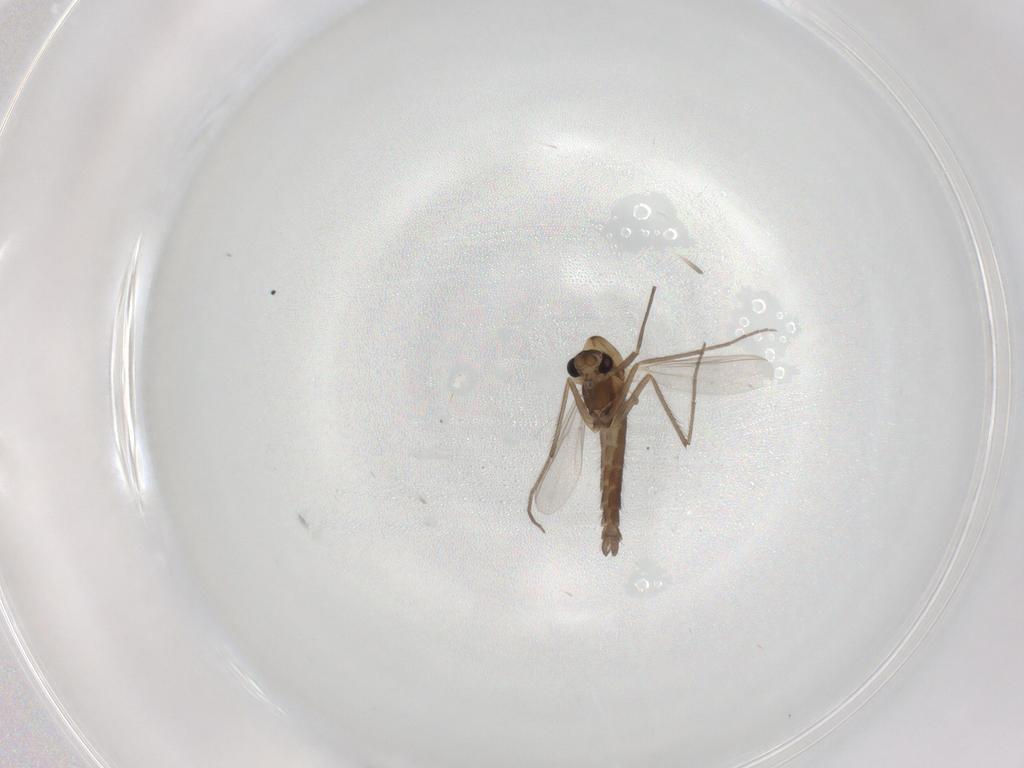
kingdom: Animalia
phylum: Arthropoda
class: Insecta
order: Diptera
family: Chironomidae
